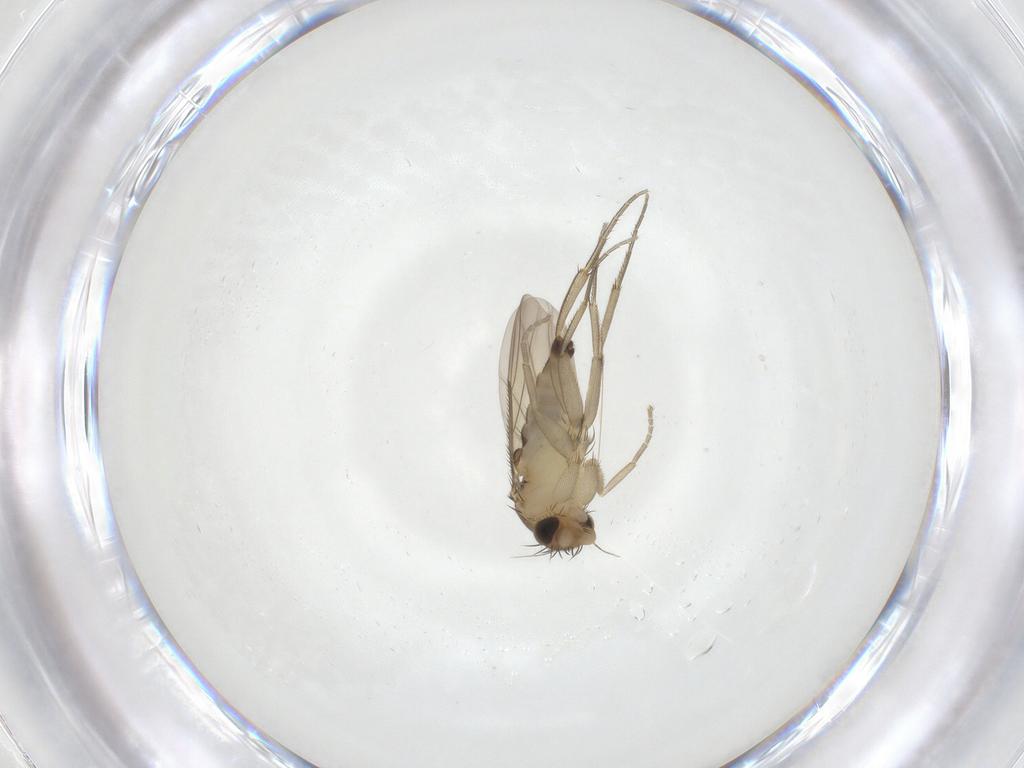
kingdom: Animalia
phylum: Arthropoda
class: Insecta
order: Diptera
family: Phoridae
